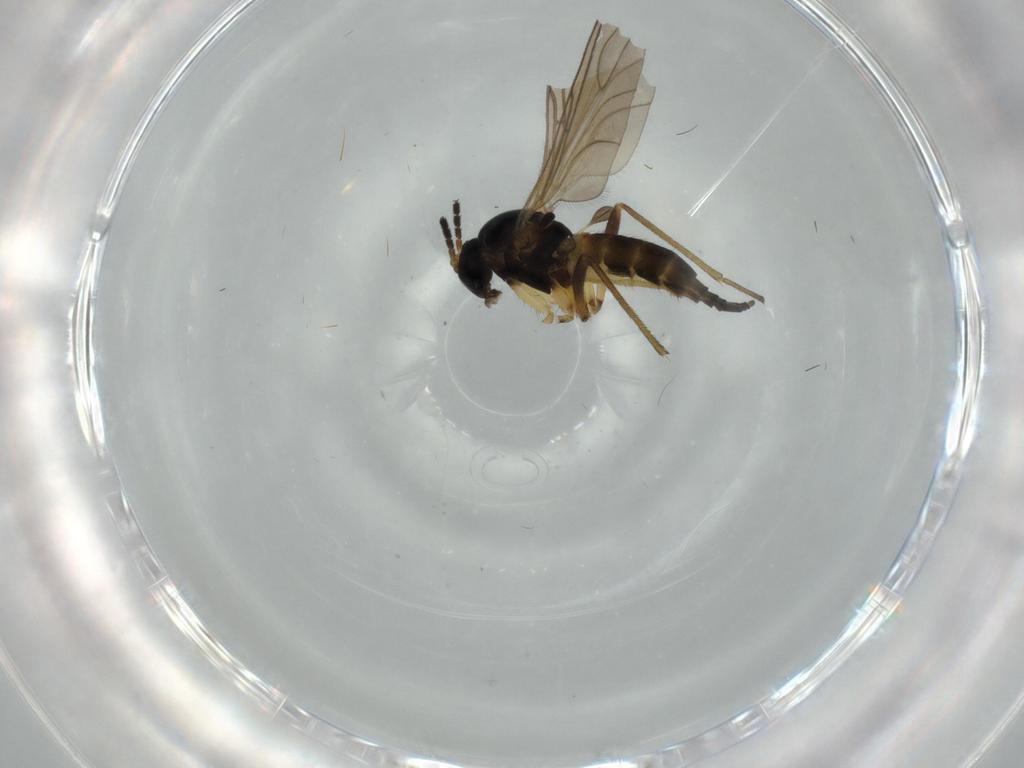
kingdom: Animalia
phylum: Arthropoda
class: Insecta
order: Diptera
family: Sciaridae
